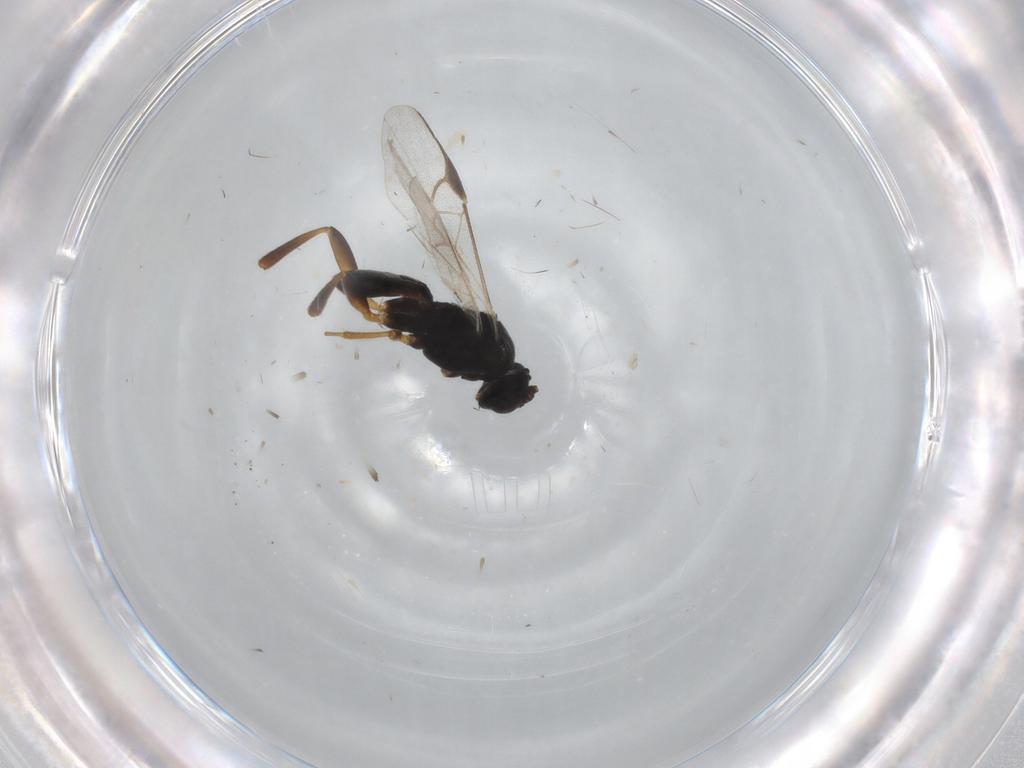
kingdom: Animalia
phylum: Arthropoda
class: Insecta
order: Hymenoptera
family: Braconidae
